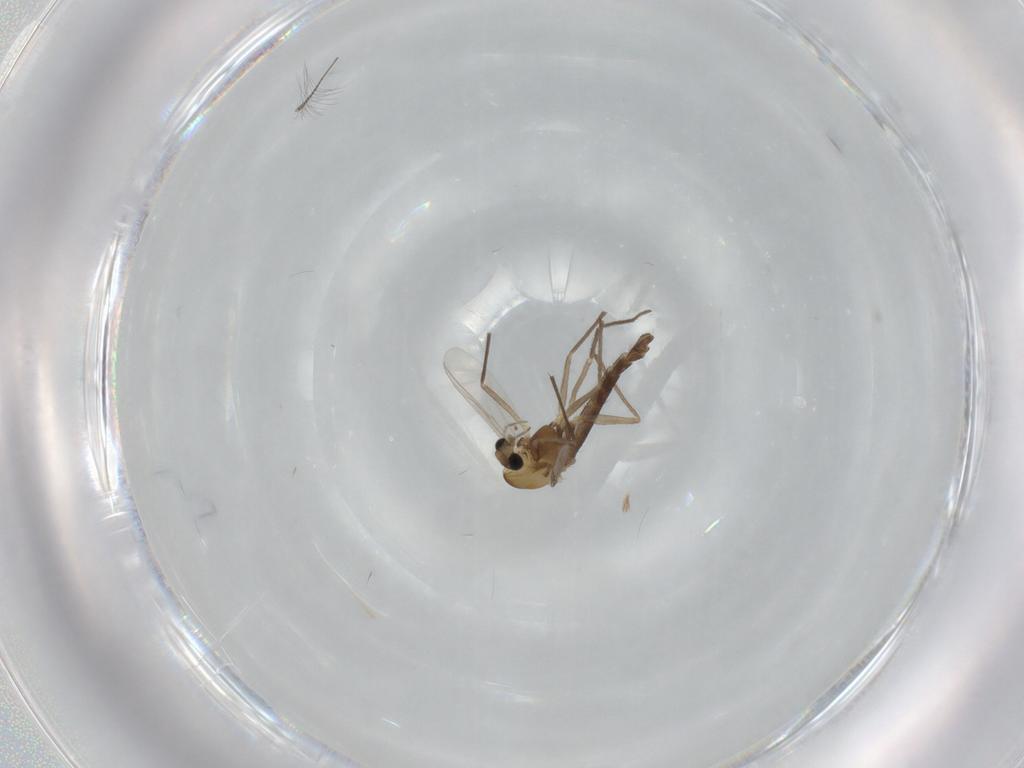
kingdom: Animalia
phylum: Arthropoda
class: Insecta
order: Diptera
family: Chironomidae
